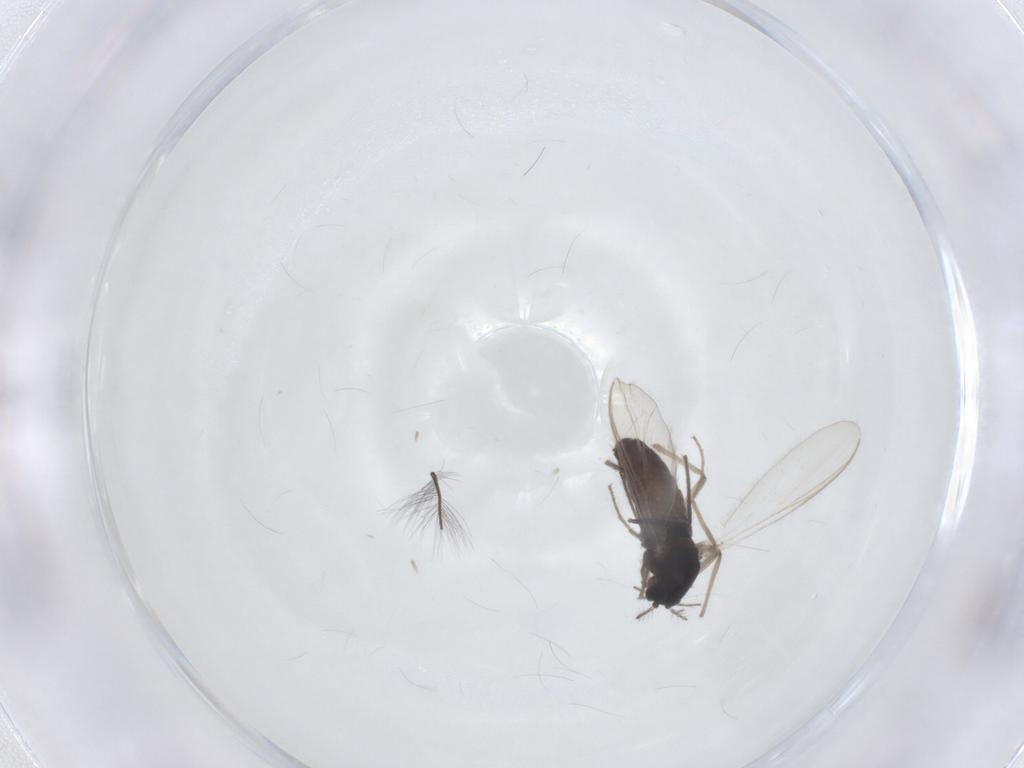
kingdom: Animalia
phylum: Arthropoda
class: Insecta
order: Diptera
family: Chironomidae
